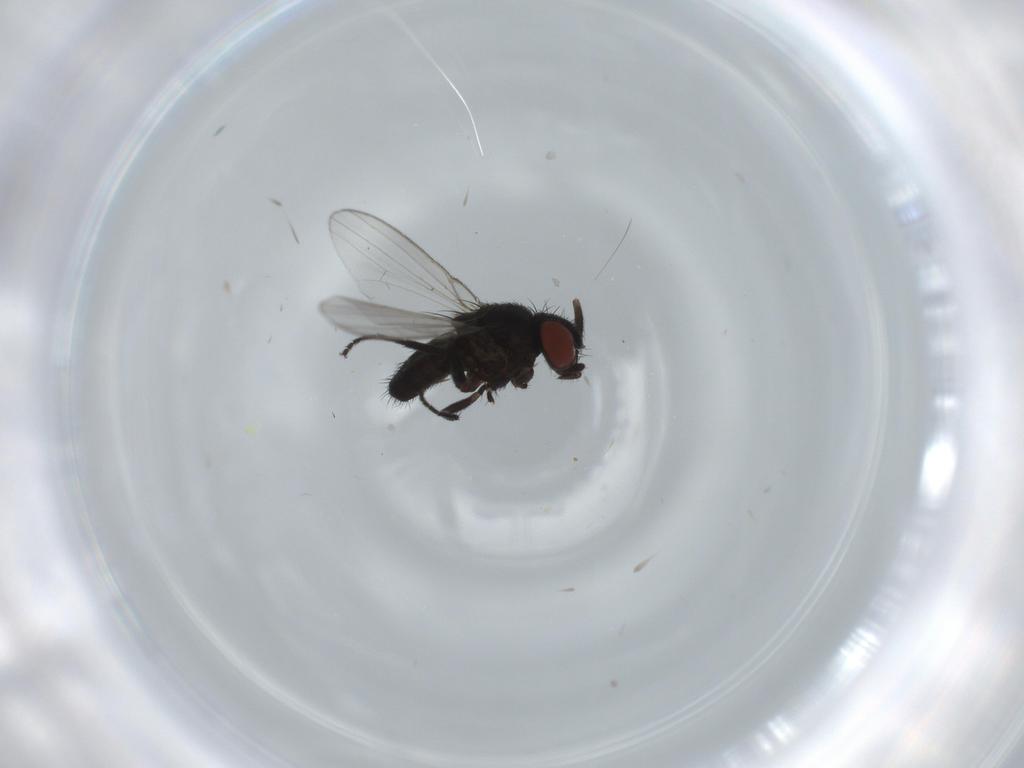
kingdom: Animalia
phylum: Arthropoda
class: Insecta
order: Diptera
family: Milichiidae
